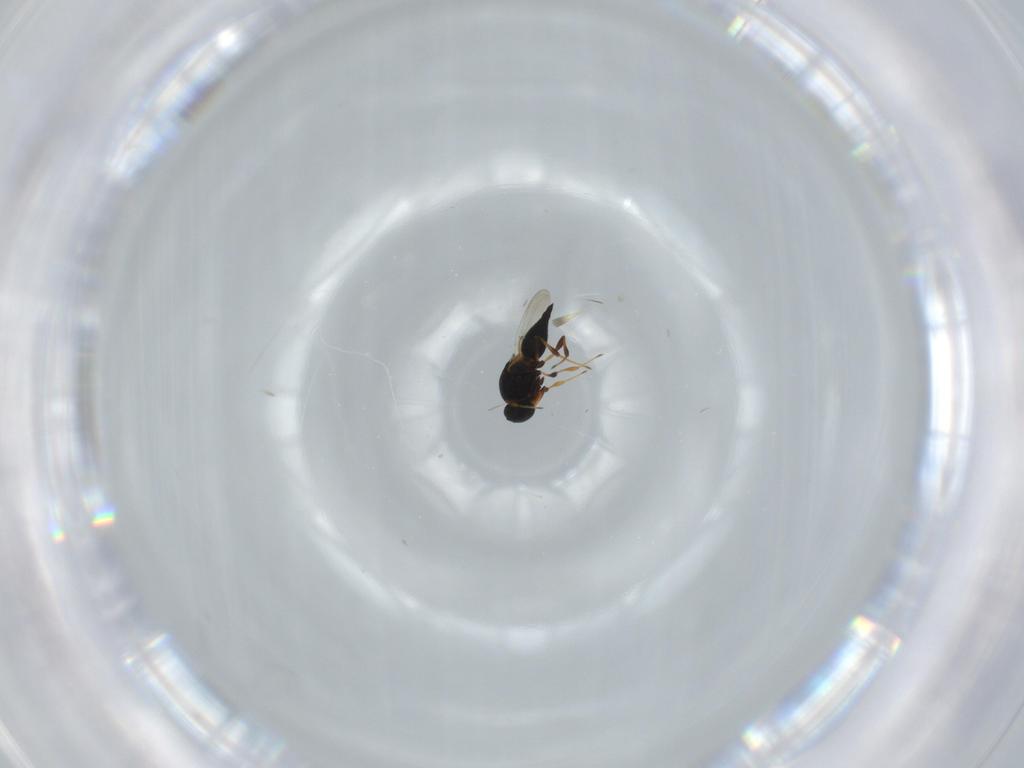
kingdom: Animalia
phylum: Arthropoda
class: Insecta
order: Hymenoptera
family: Platygastridae
